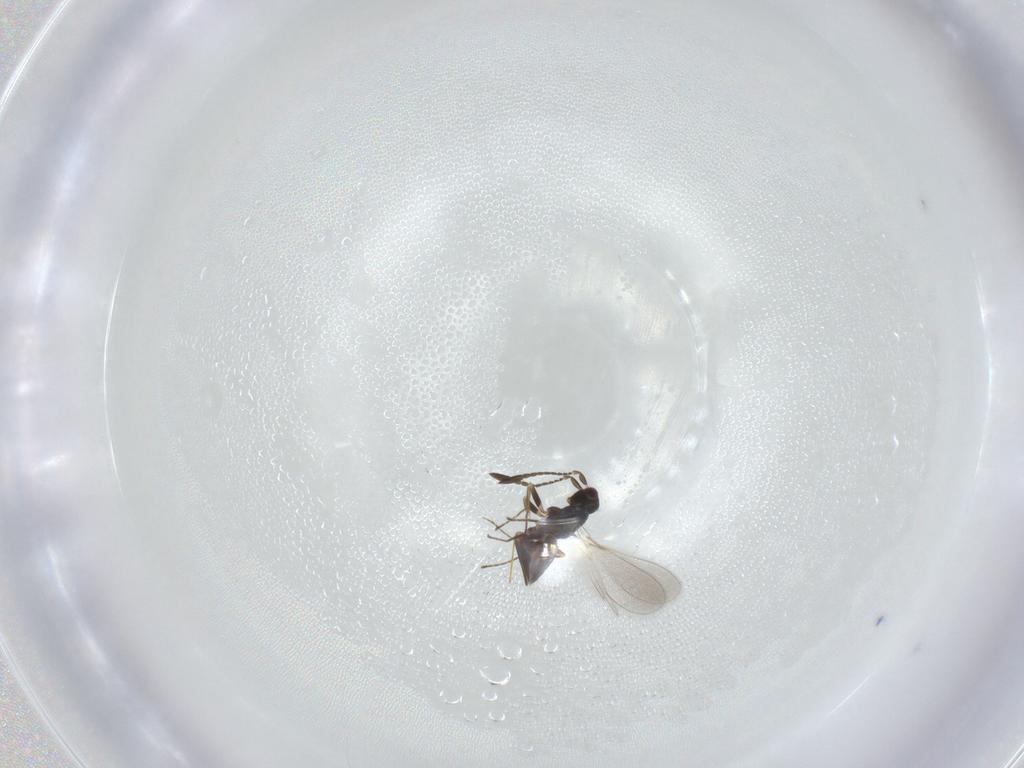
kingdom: Animalia
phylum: Arthropoda
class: Insecta
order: Hymenoptera
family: Mymaridae
